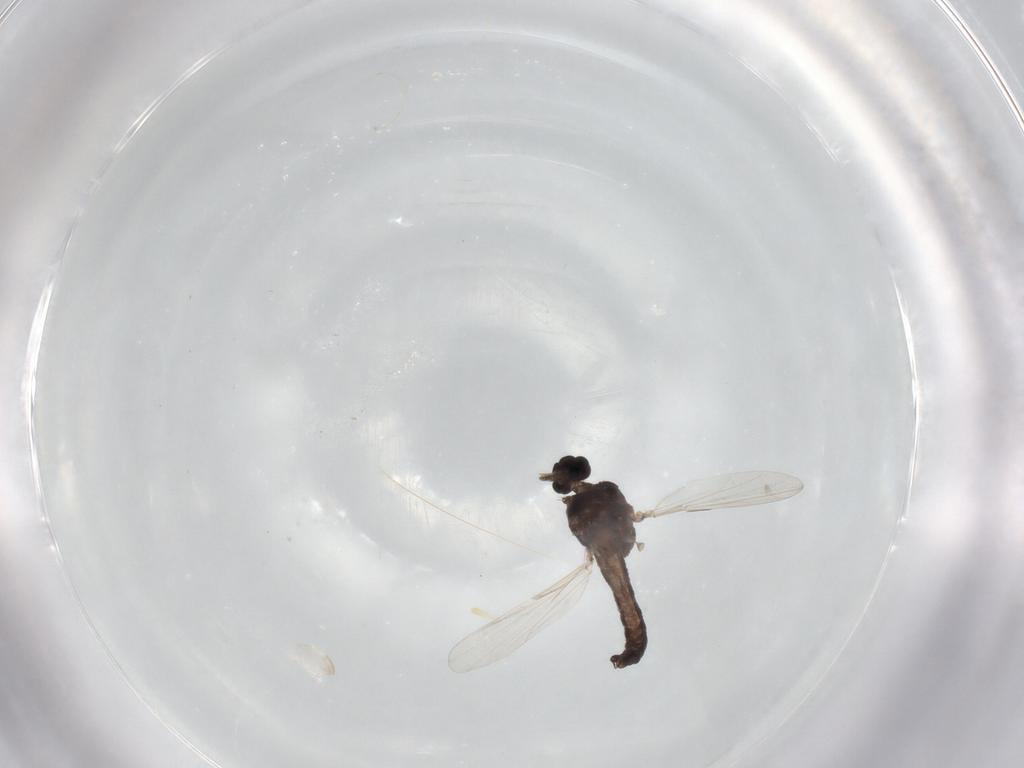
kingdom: Animalia
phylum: Arthropoda
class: Insecta
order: Diptera
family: Ceratopogonidae
